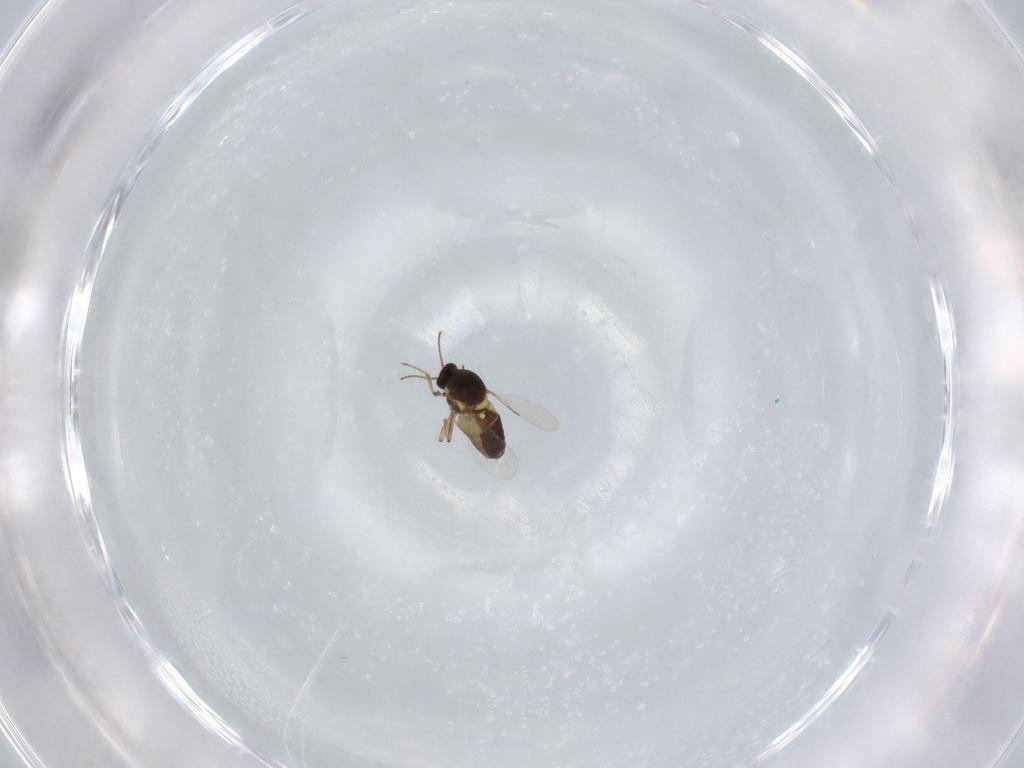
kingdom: Animalia
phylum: Arthropoda
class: Insecta
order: Diptera
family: Ceratopogonidae
